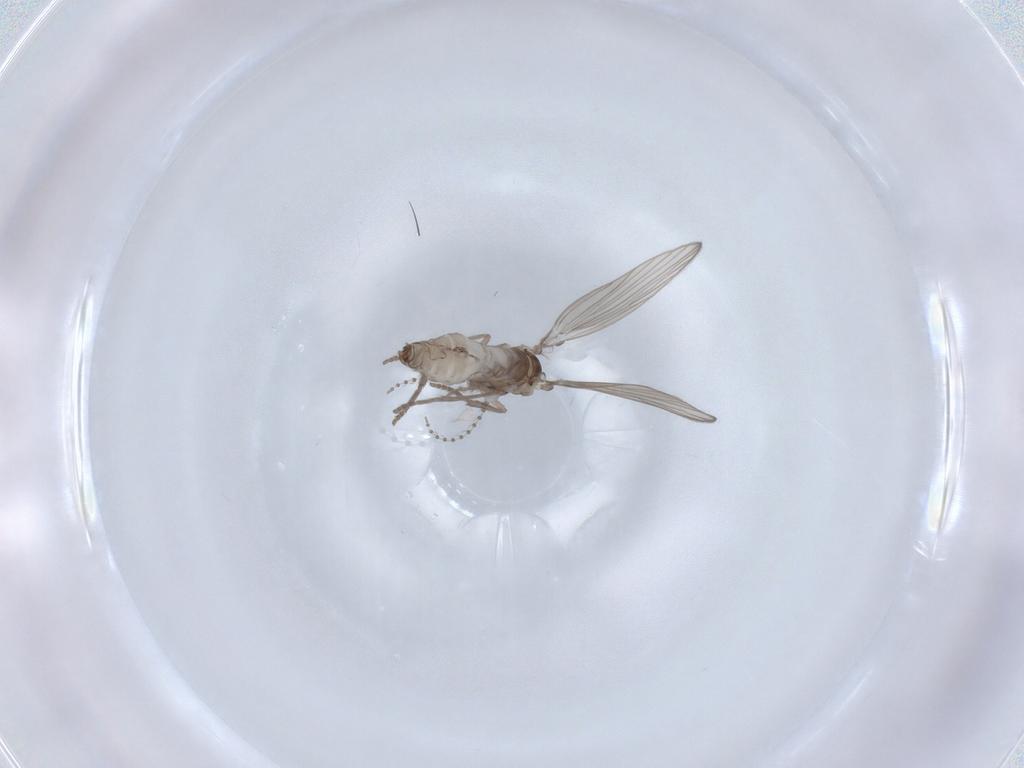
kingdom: Animalia
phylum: Arthropoda
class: Insecta
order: Diptera
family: Psychodidae
